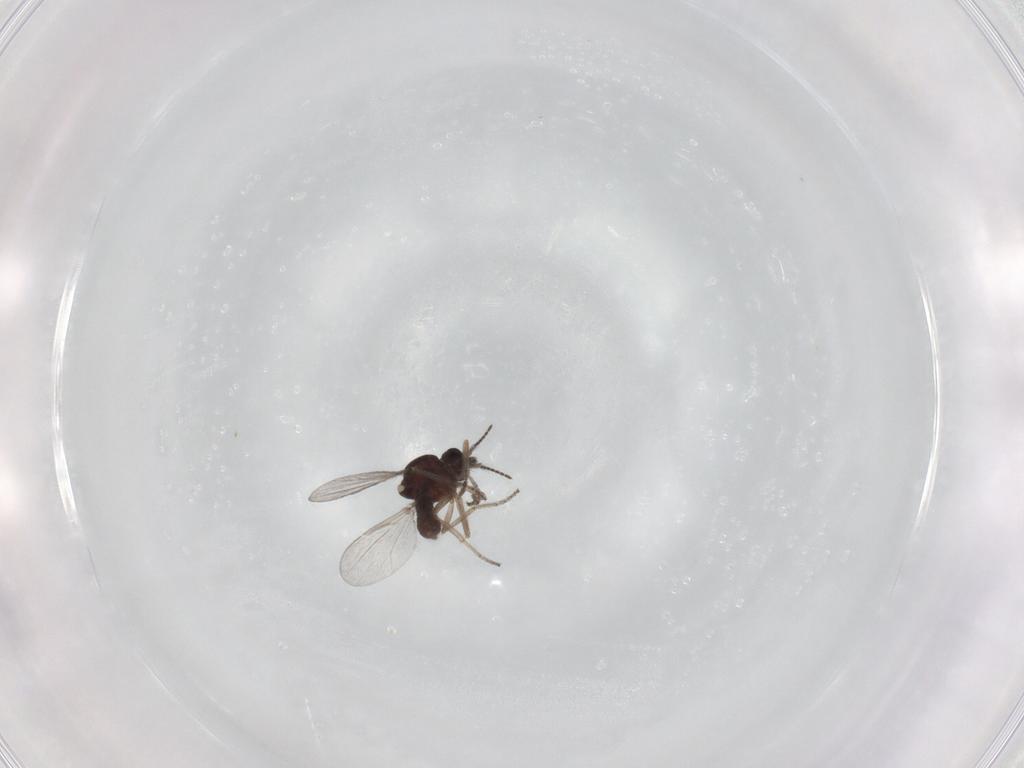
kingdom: Animalia
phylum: Arthropoda
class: Insecta
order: Diptera
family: Ceratopogonidae
